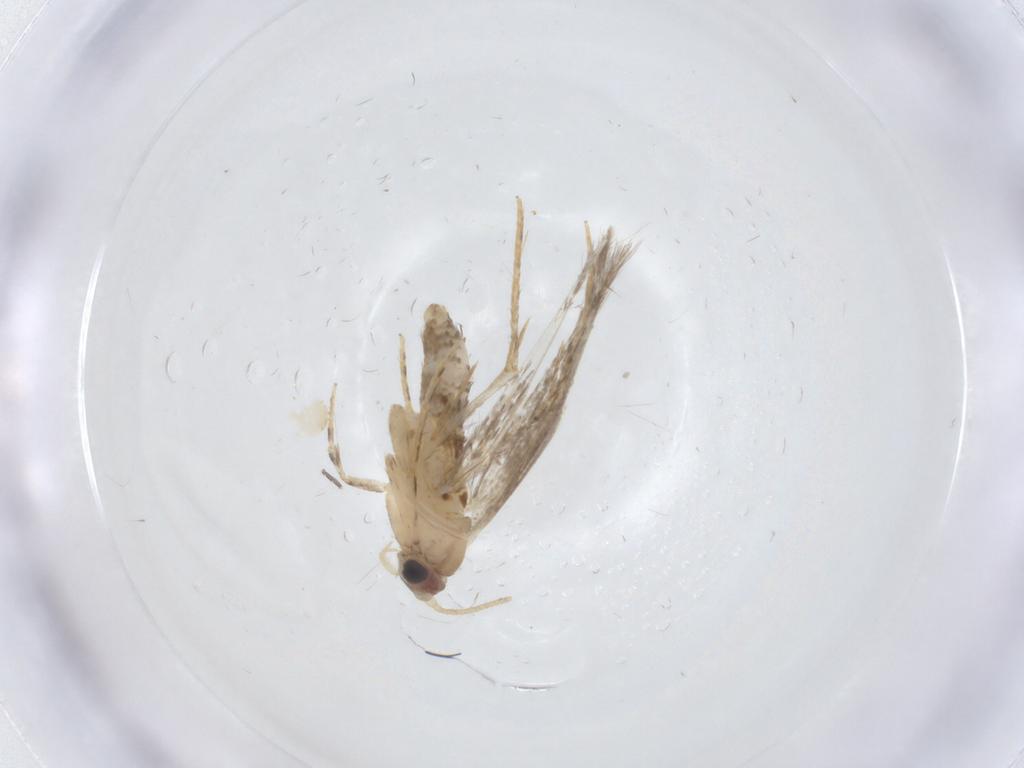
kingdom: Animalia
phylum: Arthropoda
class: Insecta
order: Lepidoptera
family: Tineidae
